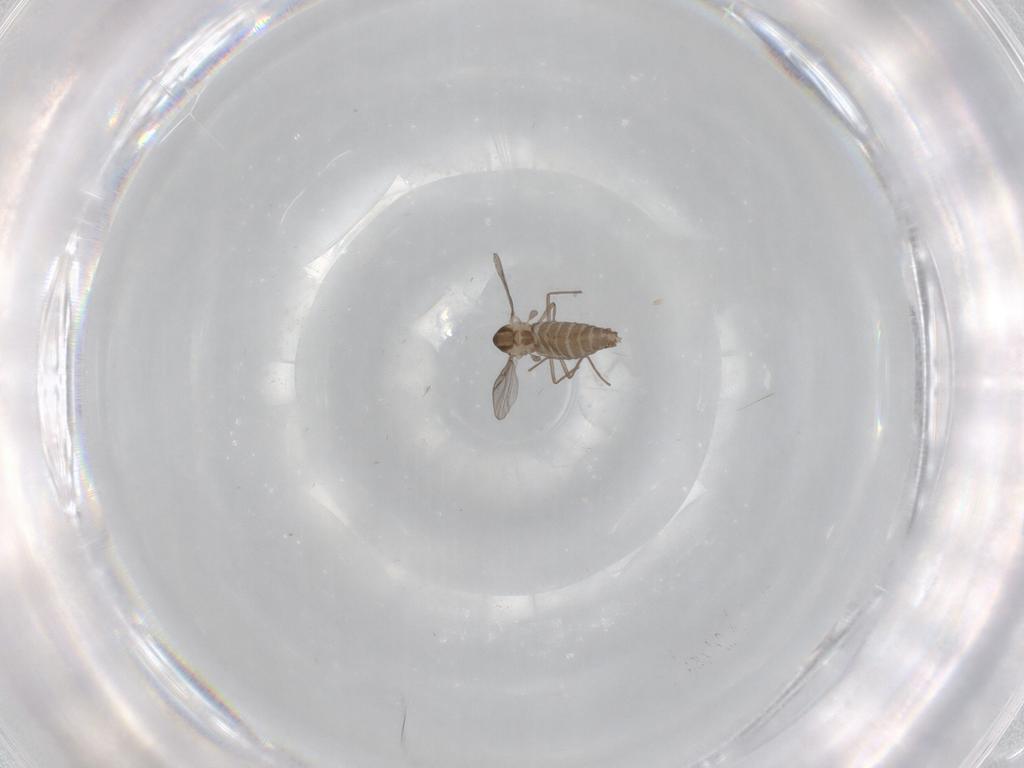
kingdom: Animalia
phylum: Arthropoda
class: Insecta
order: Diptera
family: Chironomidae
